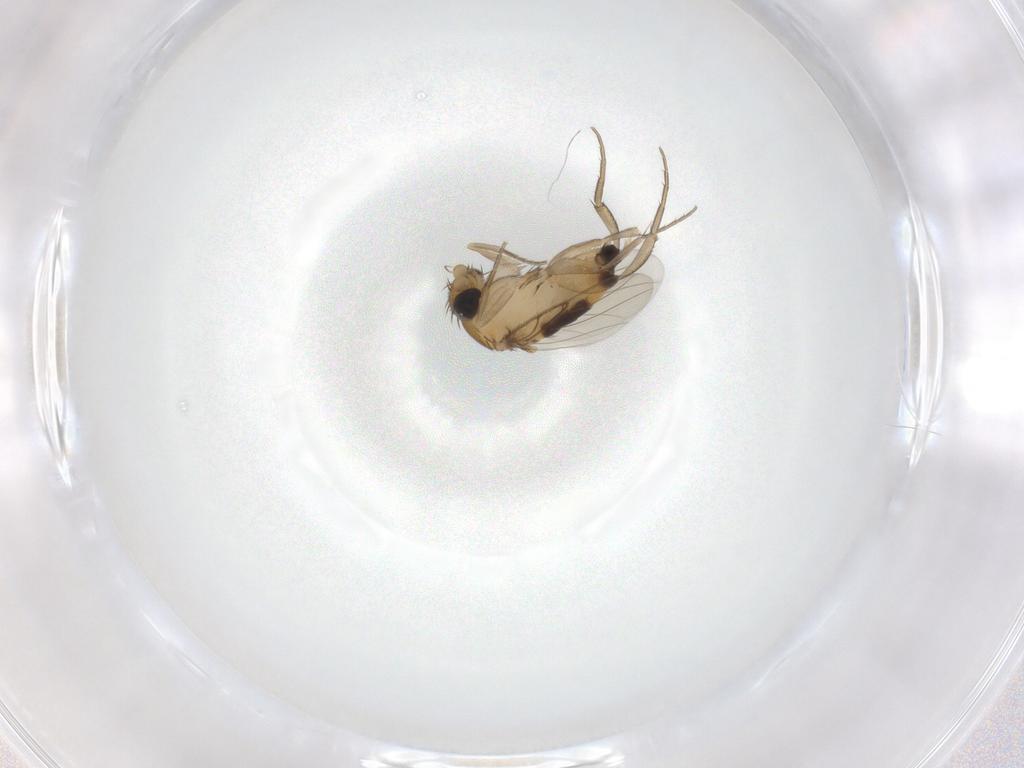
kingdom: Animalia
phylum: Arthropoda
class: Insecta
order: Diptera
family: Phoridae
